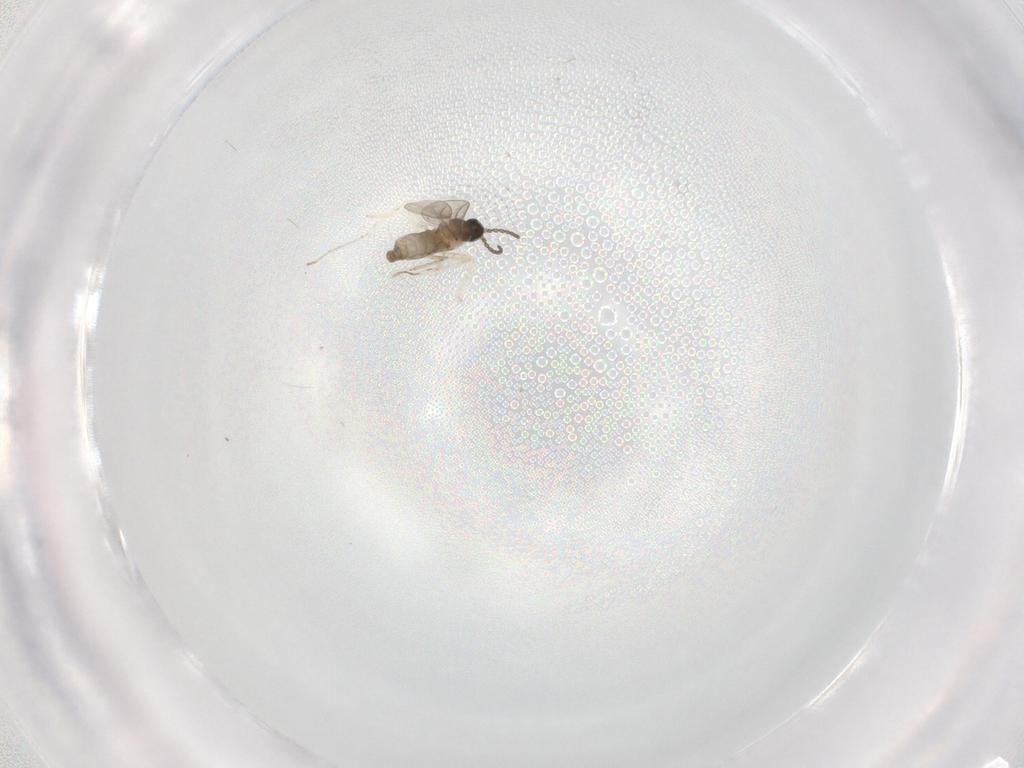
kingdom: Animalia
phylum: Arthropoda
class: Insecta
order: Diptera
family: Cecidomyiidae
